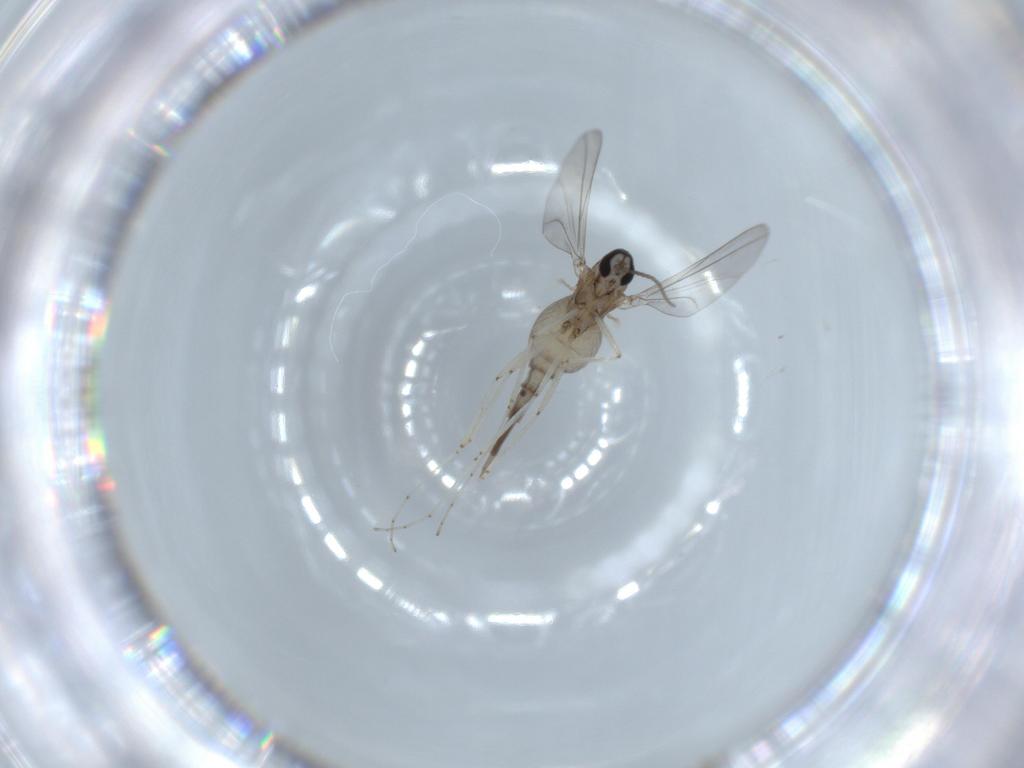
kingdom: Animalia
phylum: Arthropoda
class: Insecta
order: Diptera
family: Cecidomyiidae
